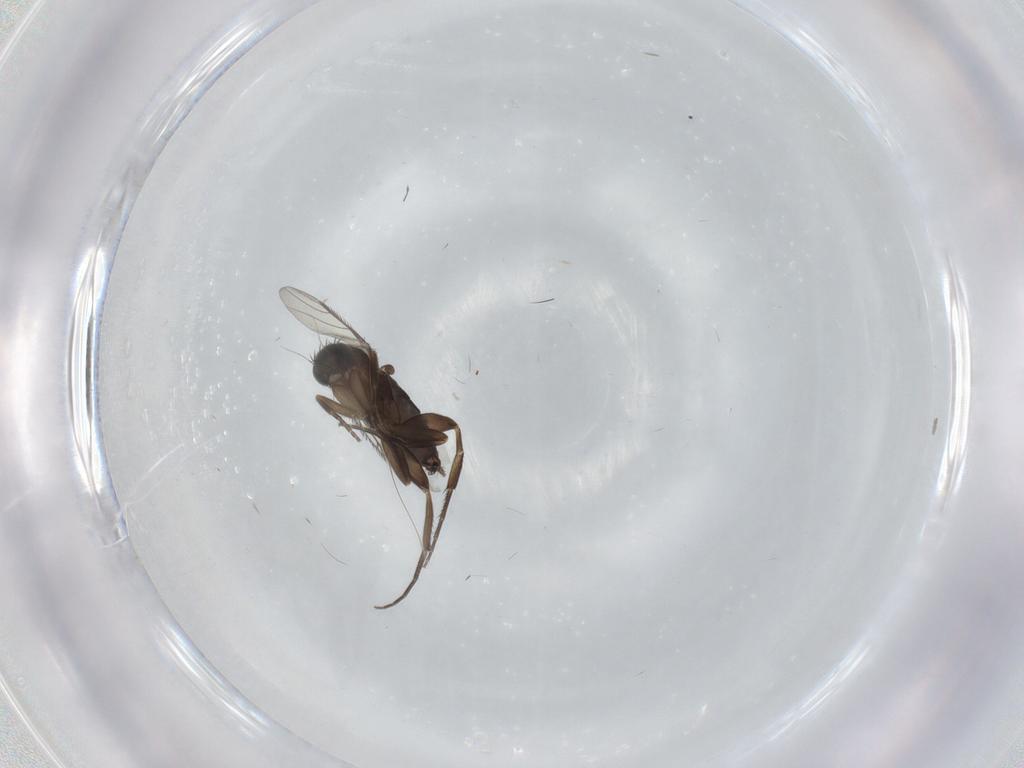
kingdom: Animalia
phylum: Arthropoda
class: Insecta
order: Diptera
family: Phoridae
